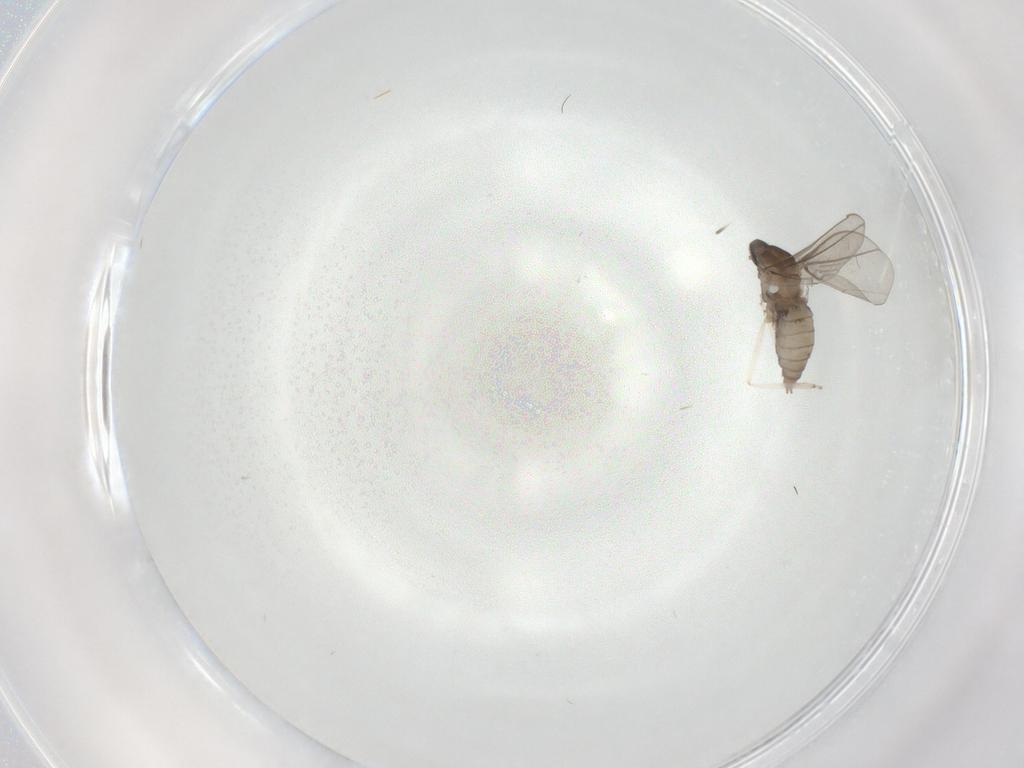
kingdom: Animalia
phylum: Arthropoda
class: Insecta
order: Diptera
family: Cecidomyiidae
